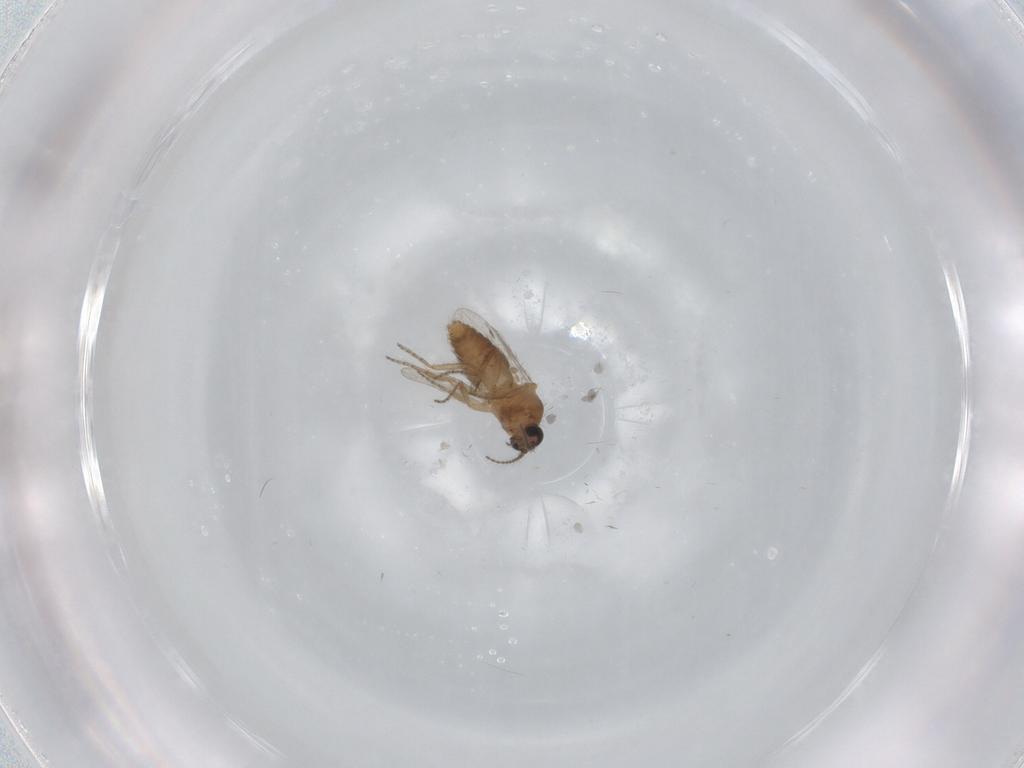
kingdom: Animalia
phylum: Arthropoda
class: Insecta
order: Diptera
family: Ceratopogonidae
